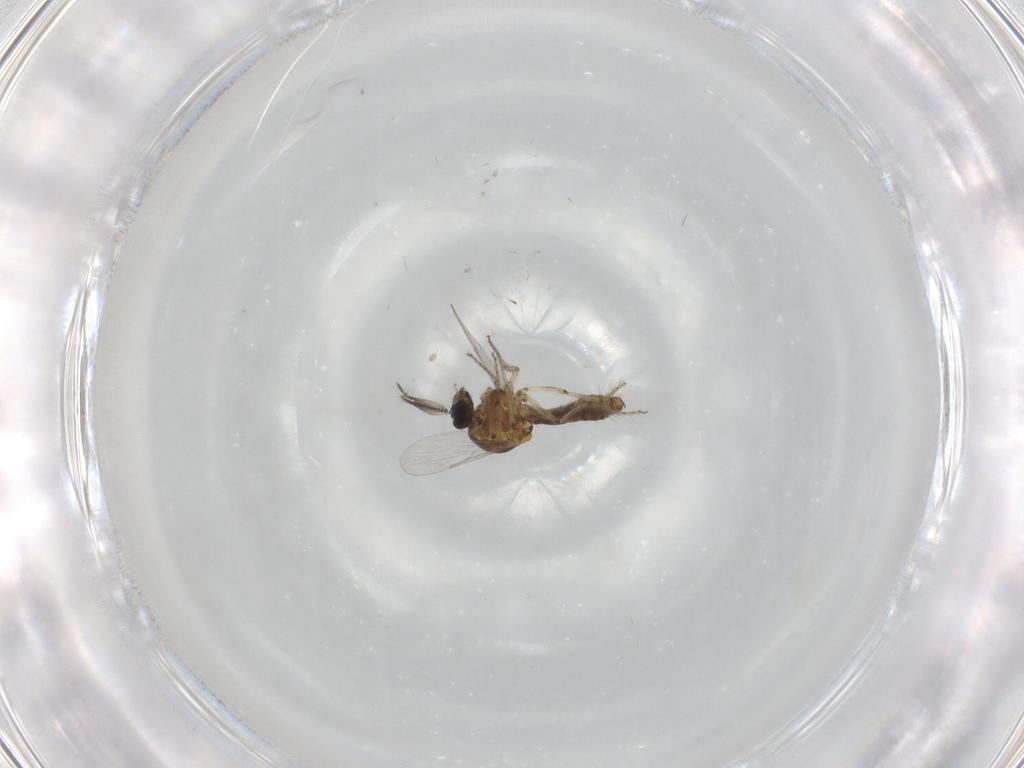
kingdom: Animalia
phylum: Arthropoda
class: Insecta
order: Diptera
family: Ceratopogonidae
